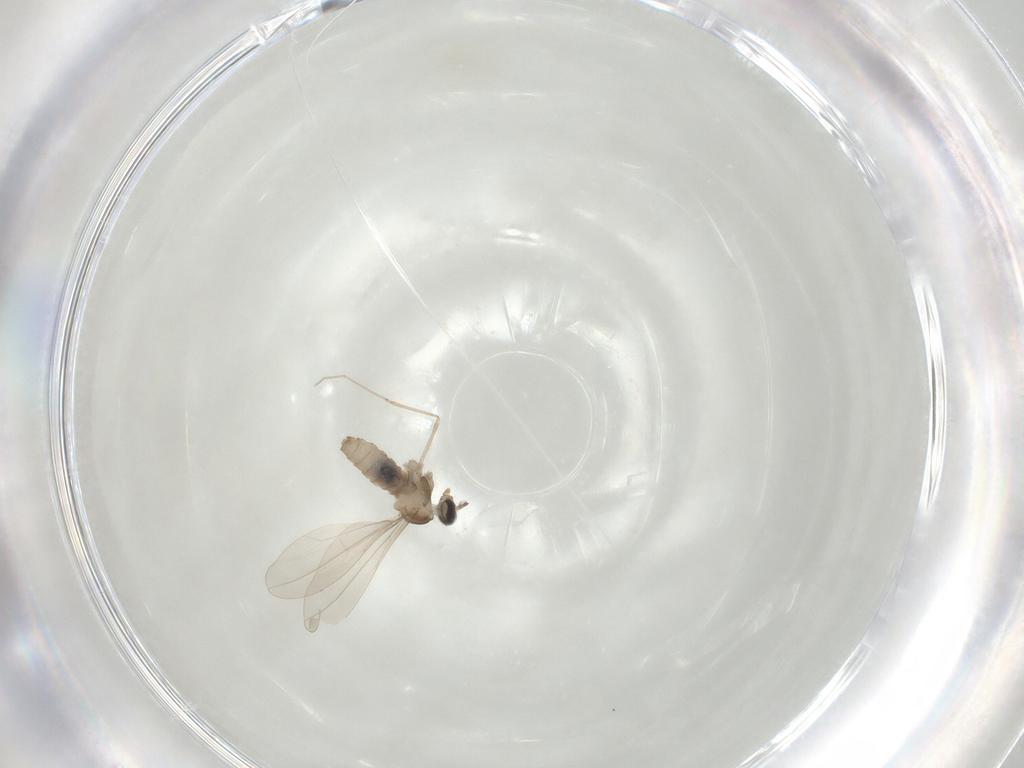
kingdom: Animalia
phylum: Arthropoda
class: Insecta
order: Diptera
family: Cecidomyiidae
